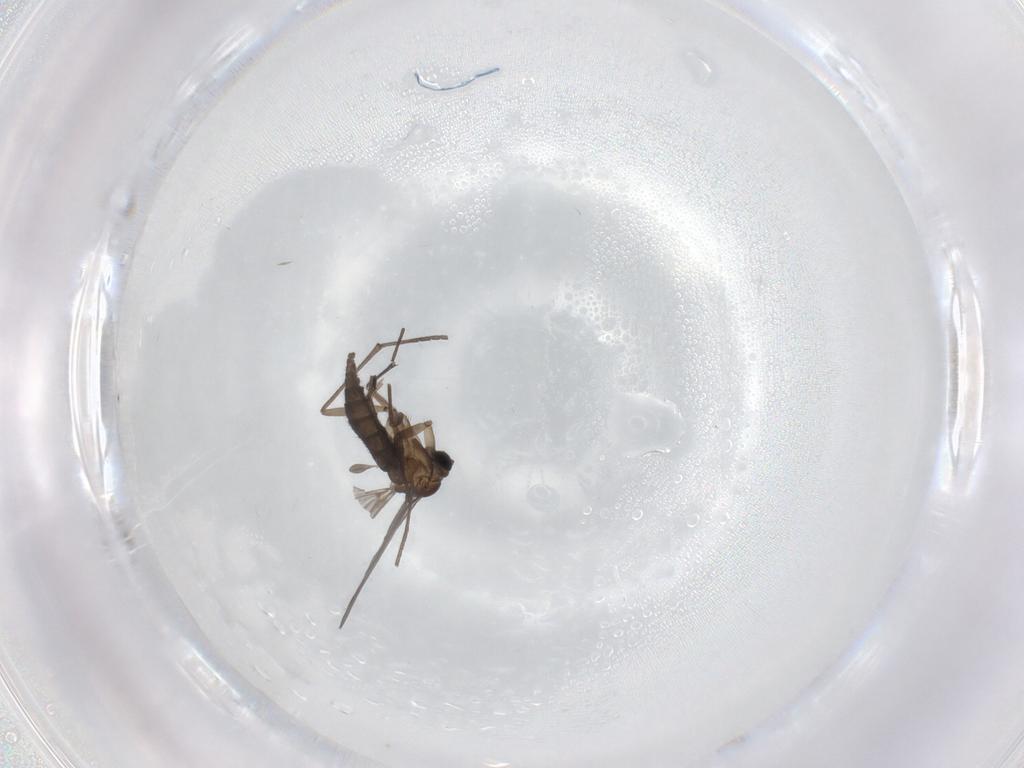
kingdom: Animalia
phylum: Arthropoda
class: Insecta
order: Diptera
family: Sciaridae
